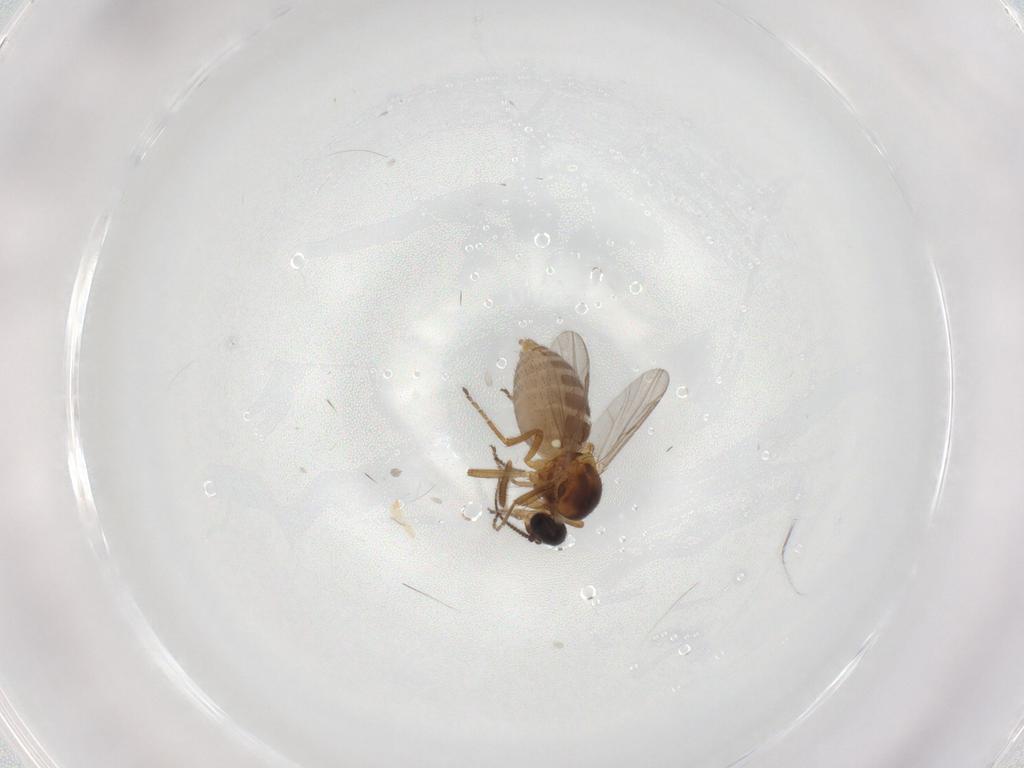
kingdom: Animalia
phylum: Arthropoda
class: Insecta
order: Diptera
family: Ceratopogonidae
